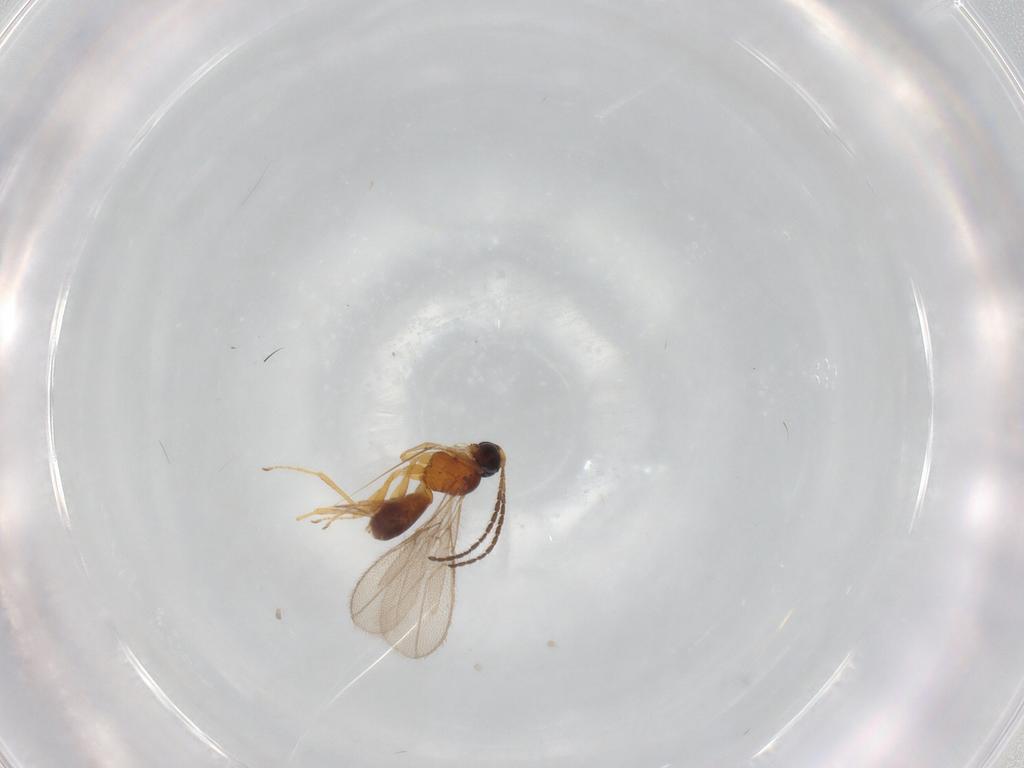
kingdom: Animalia
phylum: Arthropoda
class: Insecta
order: Hymenoptera
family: Braconidae
